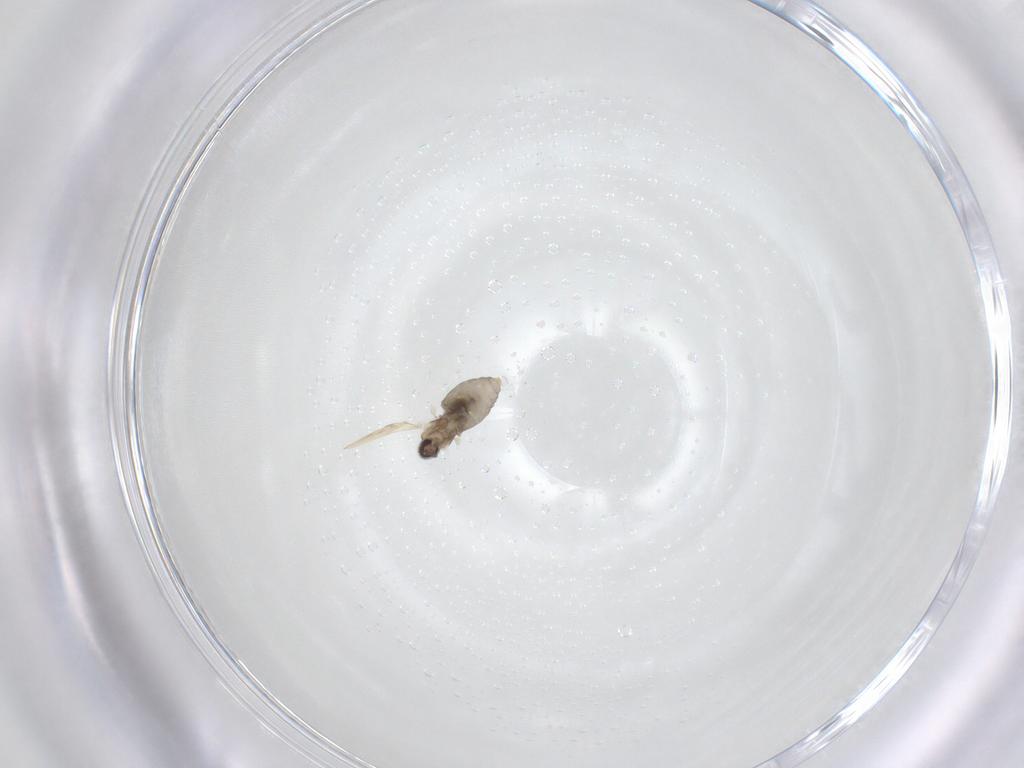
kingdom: Animalia
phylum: Arthropoda
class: Insecta
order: Diptera
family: Cecidomyiidae
